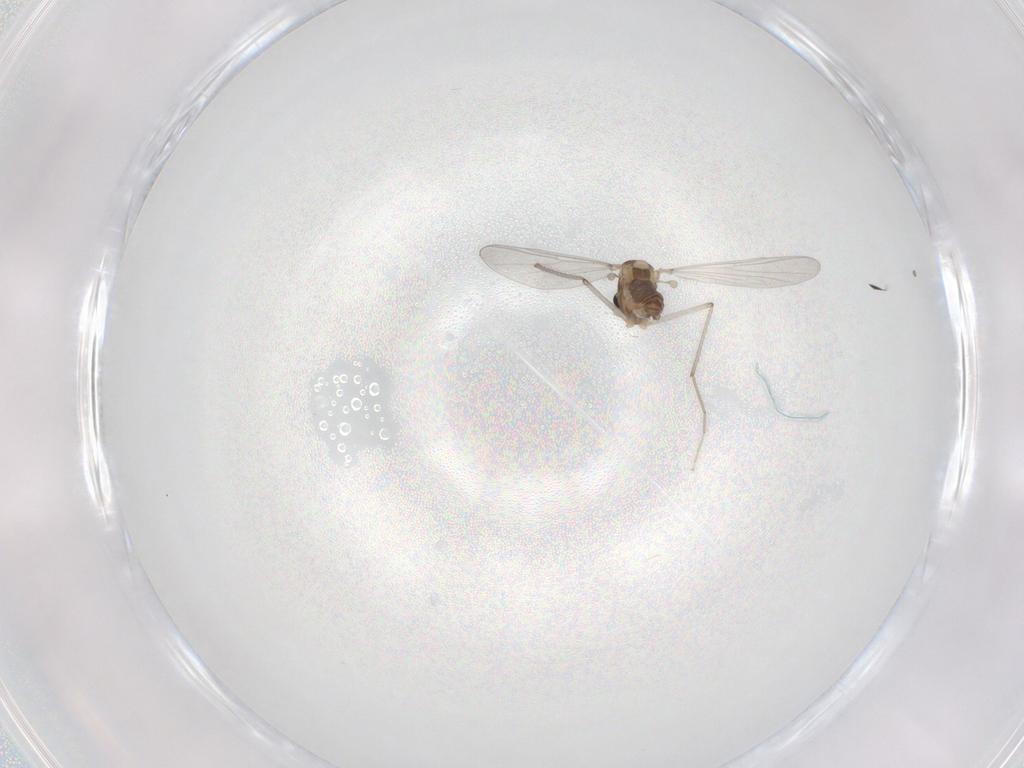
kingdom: Animalia
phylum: Arthropoda
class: Insecta
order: Diptera
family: Chironomidae
